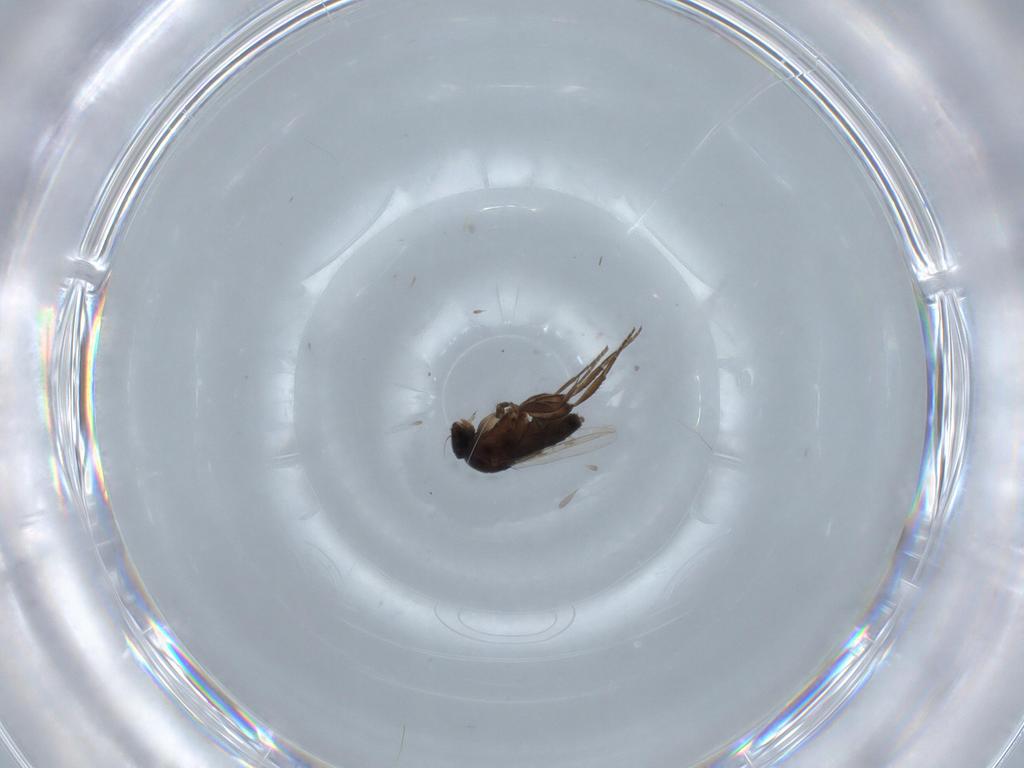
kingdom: Animalia
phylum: Arthropoda
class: Insecta
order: Diptera
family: Phoridae
